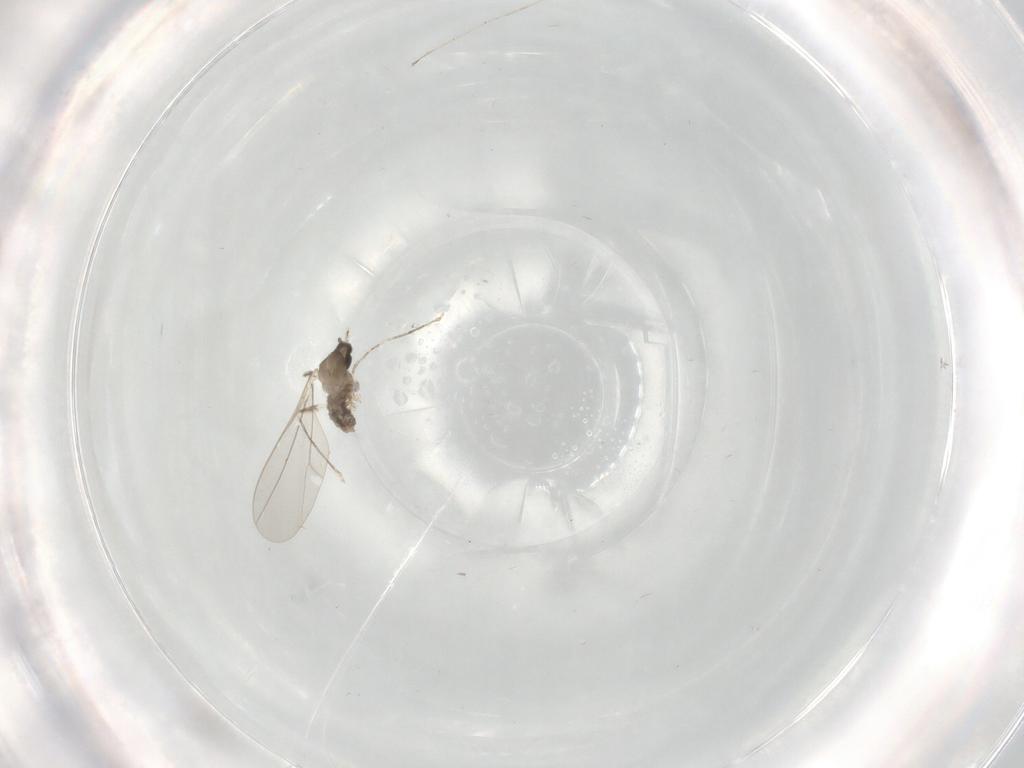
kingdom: Animalia
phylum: Arthropoda
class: Insecta
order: Diptera
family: Cecidomyiidae
